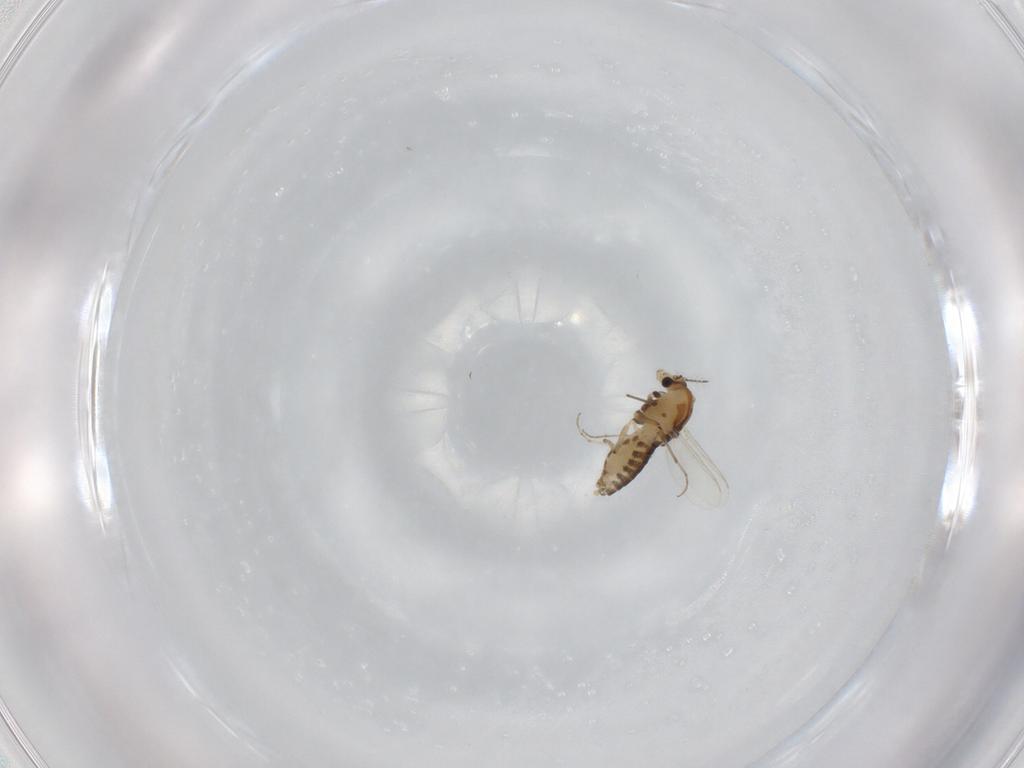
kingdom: Animalia
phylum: Arthropoda
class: Insecta
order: Diptera
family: Chironomidae
